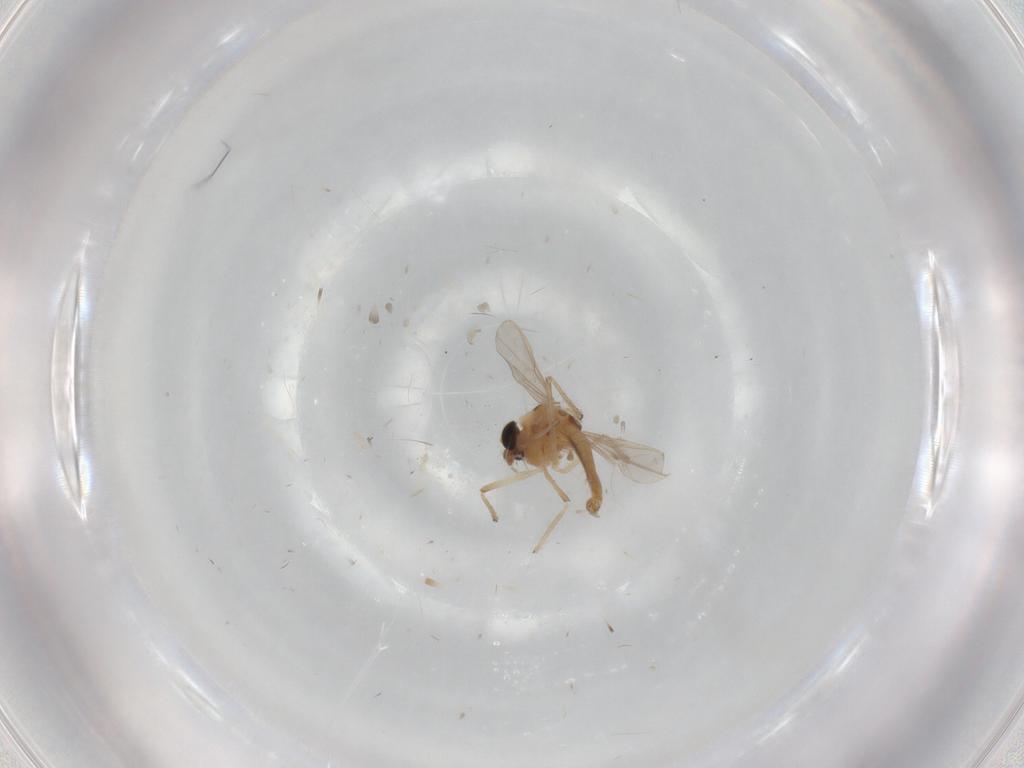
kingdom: Animalia
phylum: Arthropoda
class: Insecta
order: Diptera
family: Chironomidae
